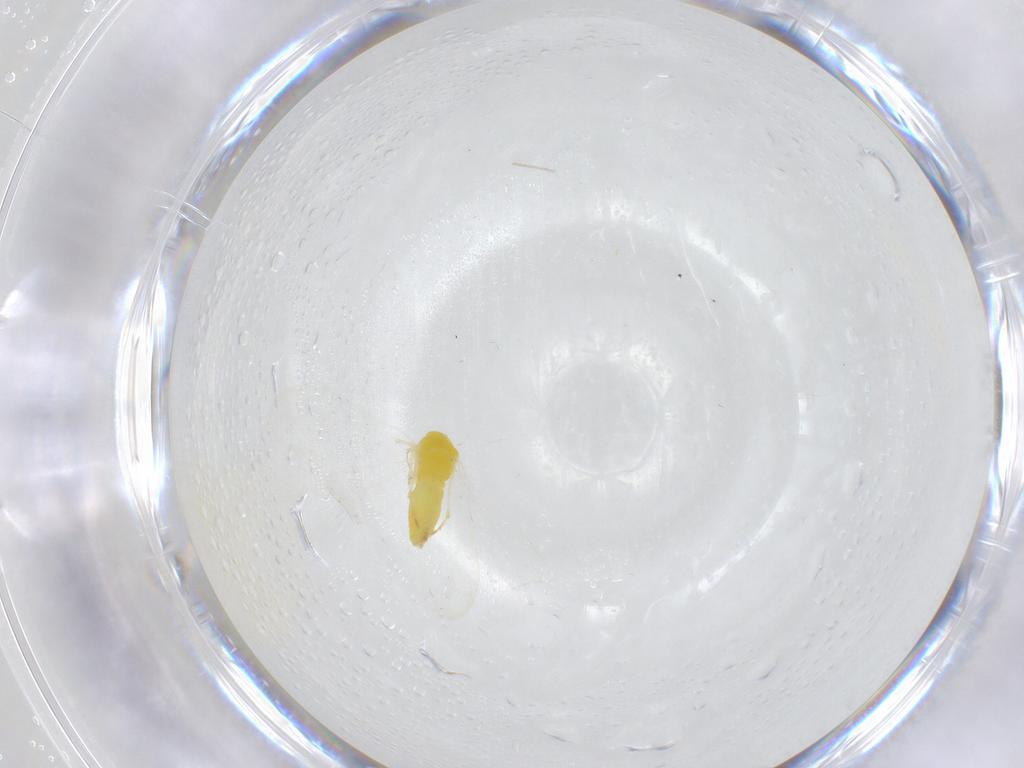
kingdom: Animalia
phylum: Arthropoda
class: Insecta
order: Hemiptera
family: Aleyrodidae
